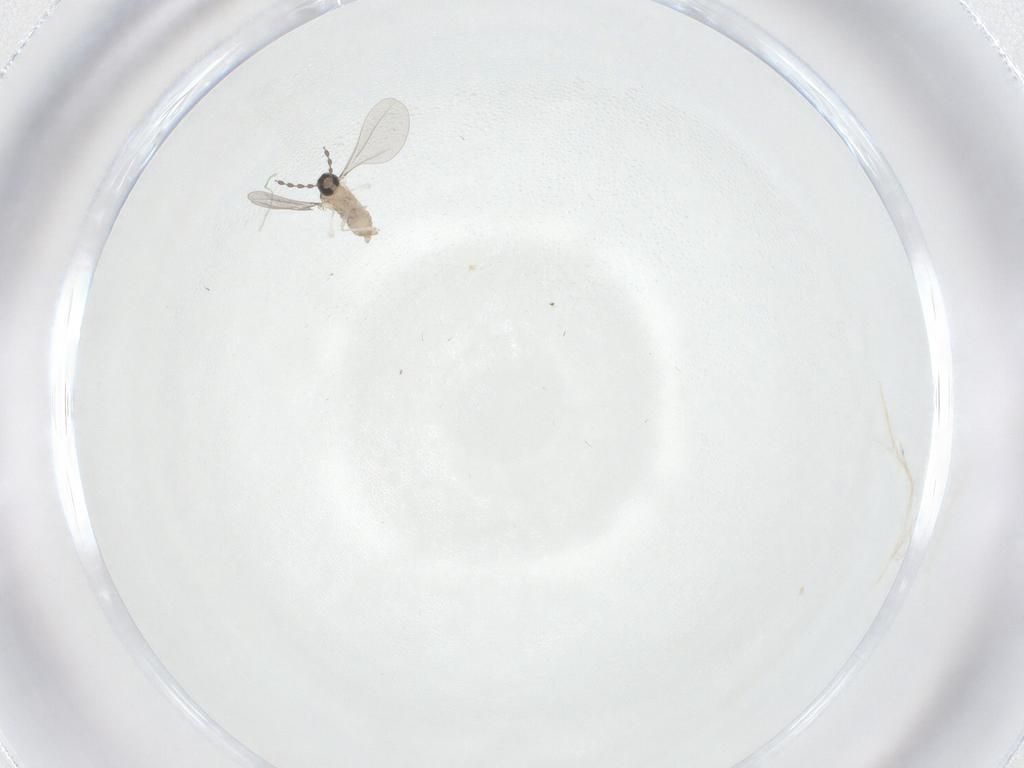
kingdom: Animalia
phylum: Arthropoda
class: Insecta
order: Diptera
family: Cecidomyiidae
